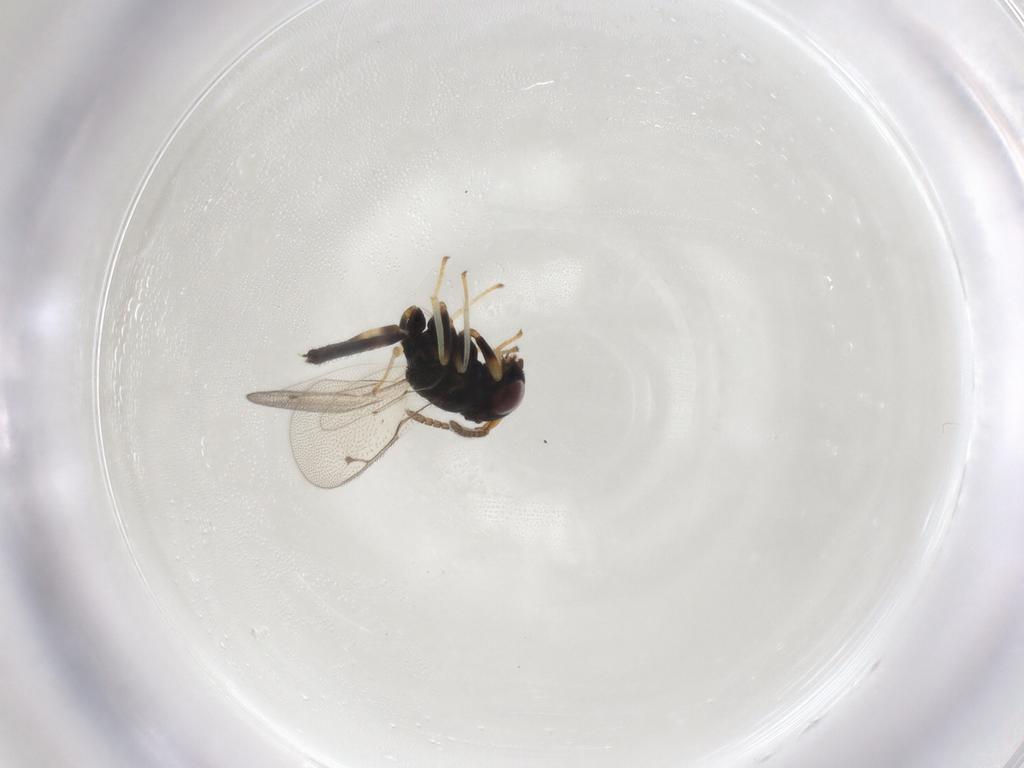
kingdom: Animalia
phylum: Arthropoda
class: Insecta
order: Hymenoptera
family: Pteromalidae
